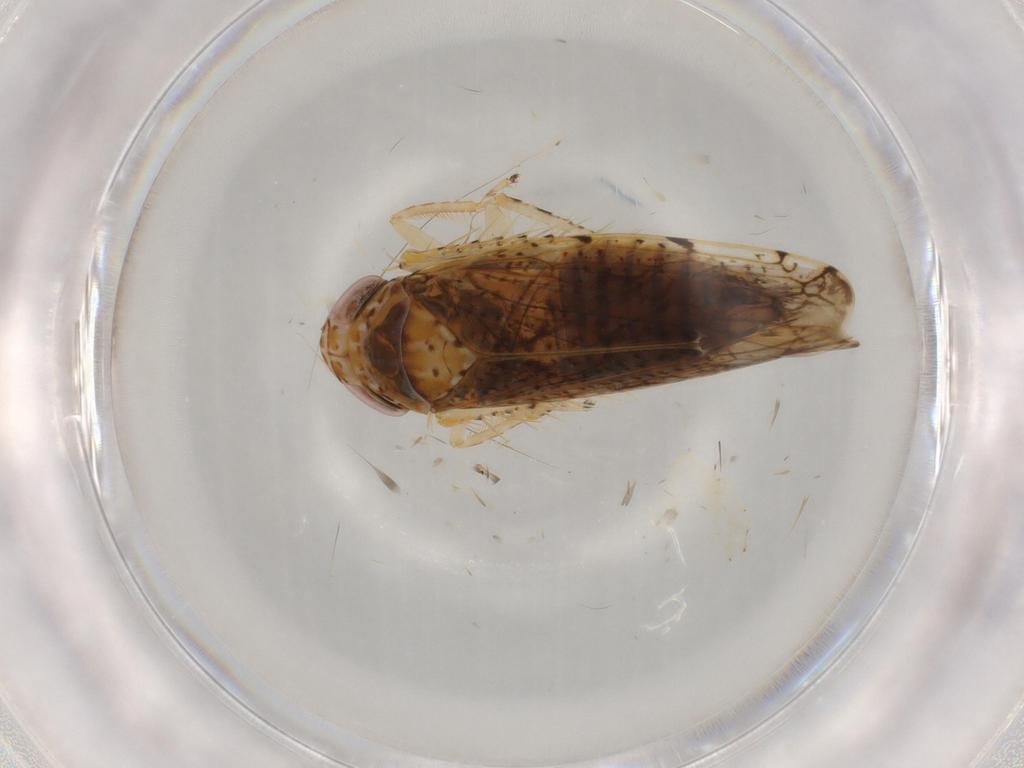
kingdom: Animalia
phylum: Arthropoda
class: Insecta
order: Hemiptera
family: Cicadellidae
